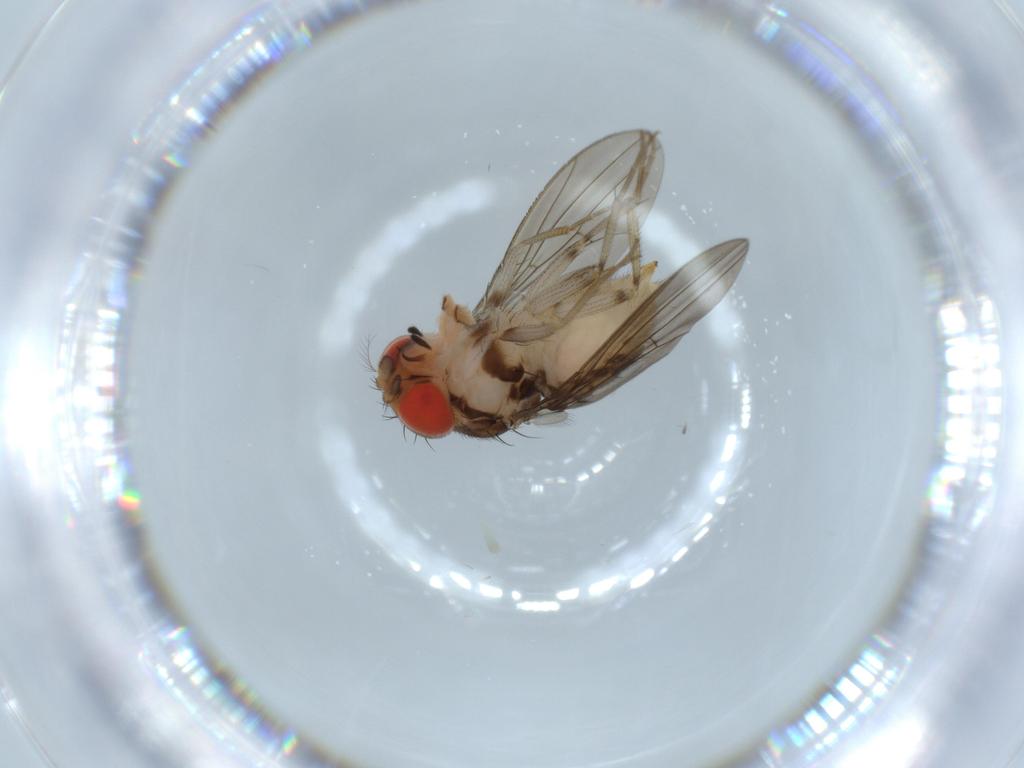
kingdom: Animalia
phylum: Arthropoda
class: Insecta
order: Diptera
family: Drosophilidae
